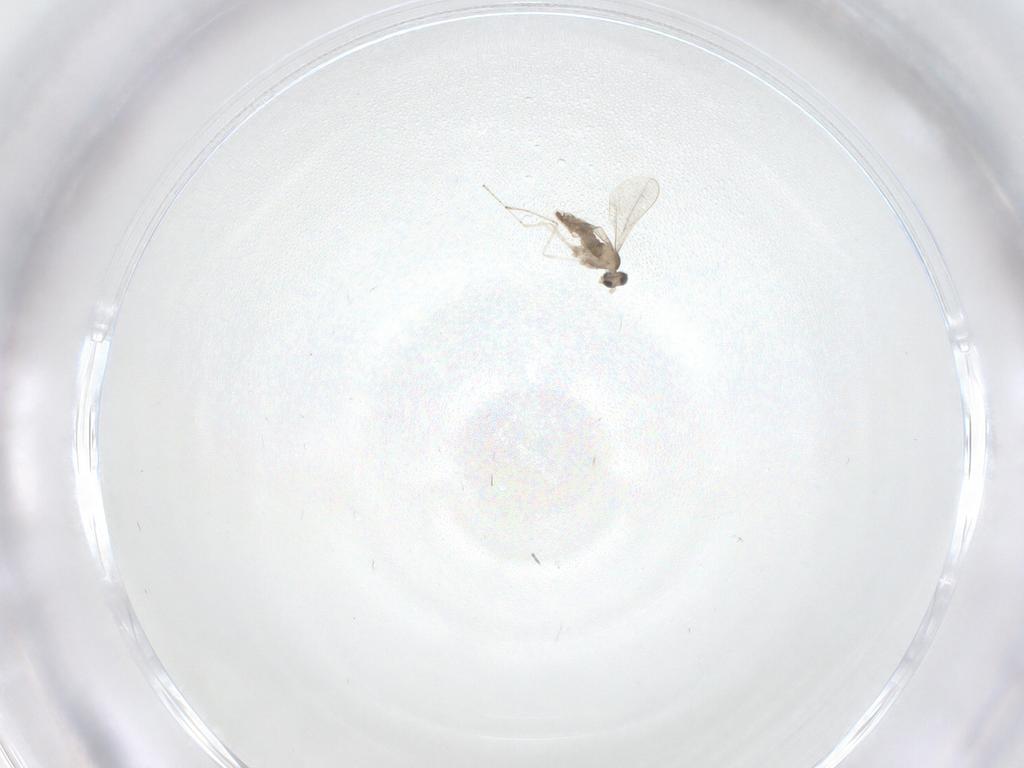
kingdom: Animalia
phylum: Arthropoda
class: Insecta
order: Diptera
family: Cecidomyiidae
